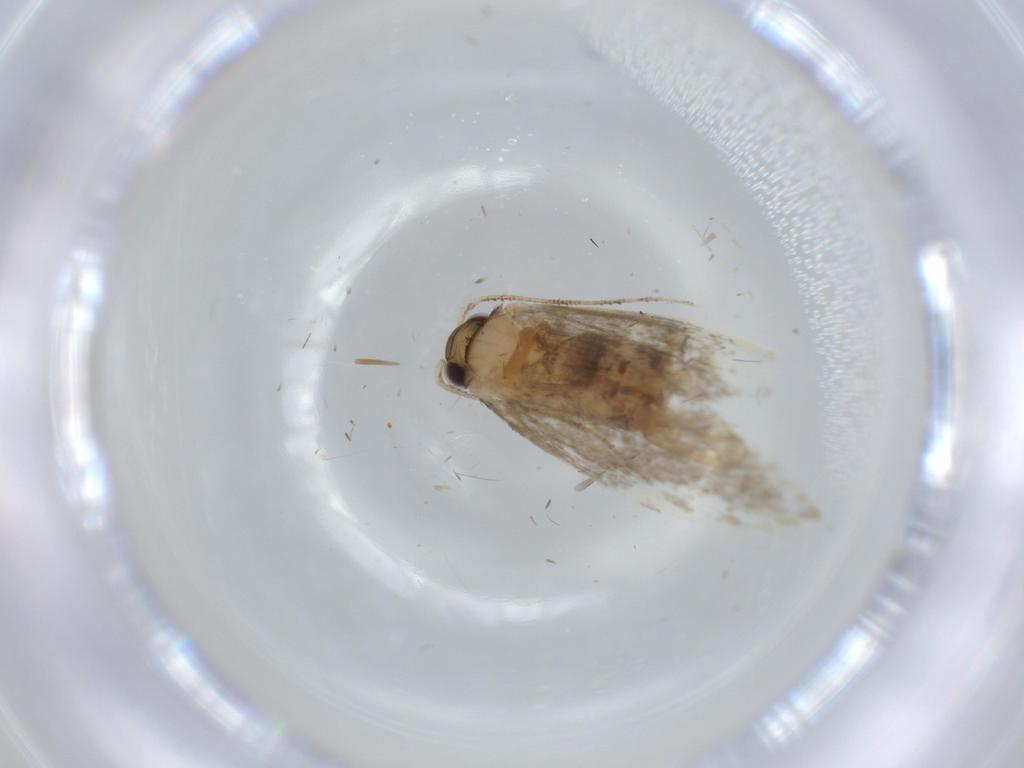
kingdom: Animalia
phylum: Arthropoda
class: Insecta
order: Lepidoptera
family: Tineidae
